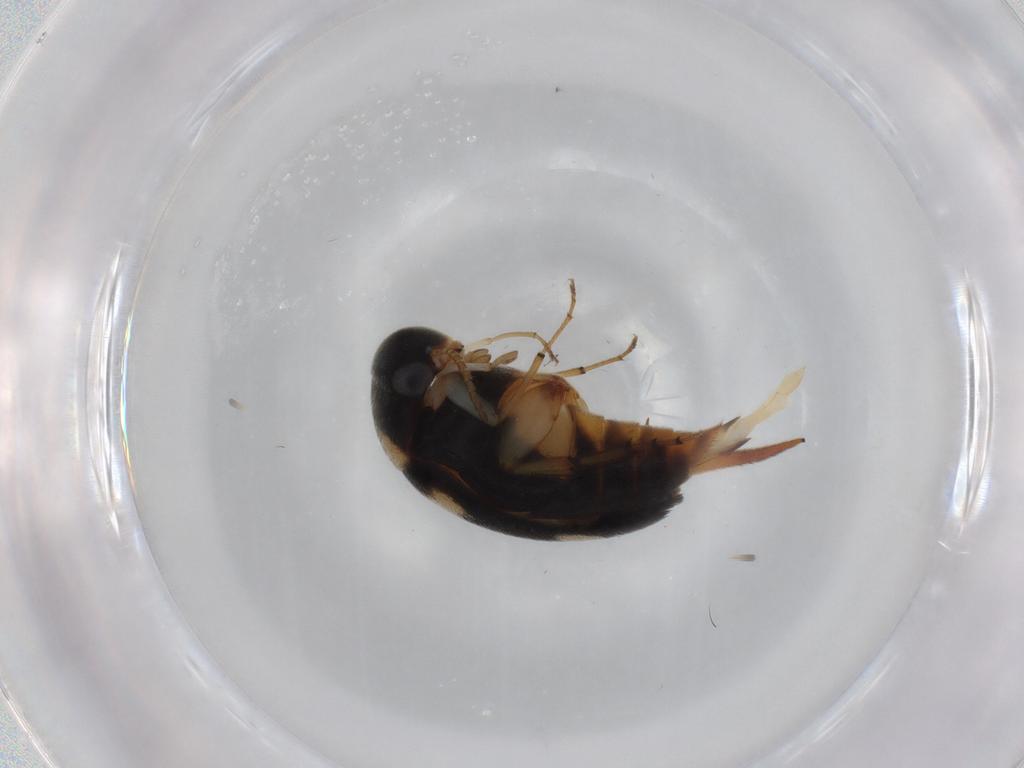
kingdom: Animalia
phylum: Arthropoda
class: Insecta
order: Coleoptera
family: Mordellidae
